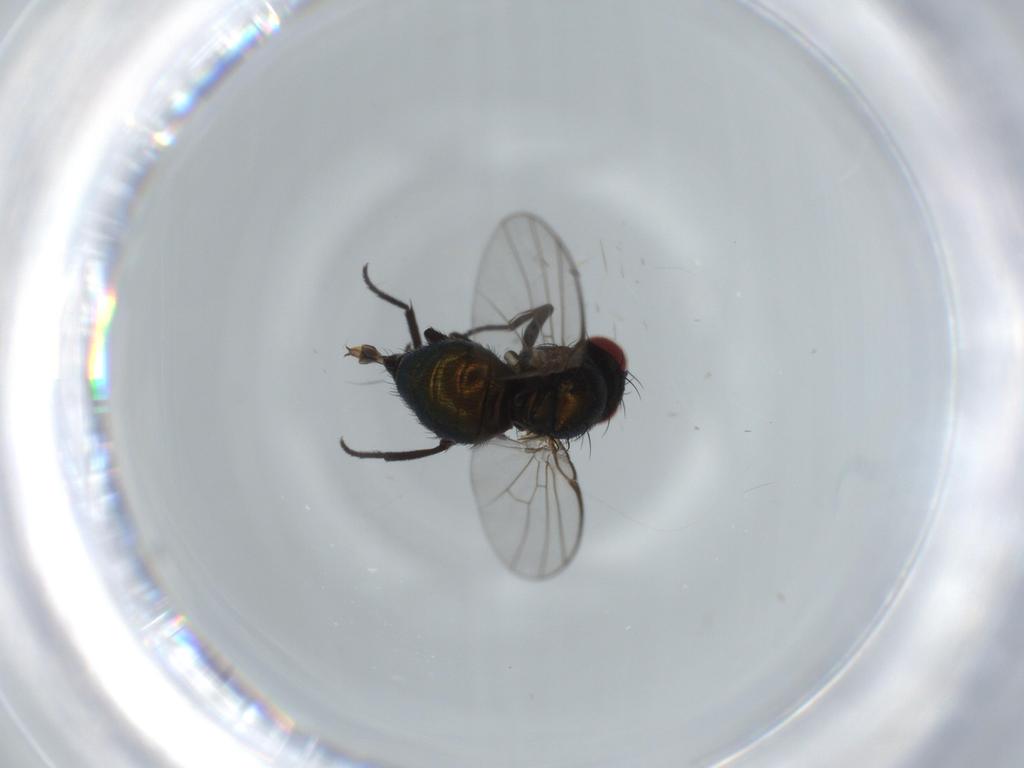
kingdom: Animalia
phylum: Arthropoda
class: Insecta
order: Diptera
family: Agromyzidae
